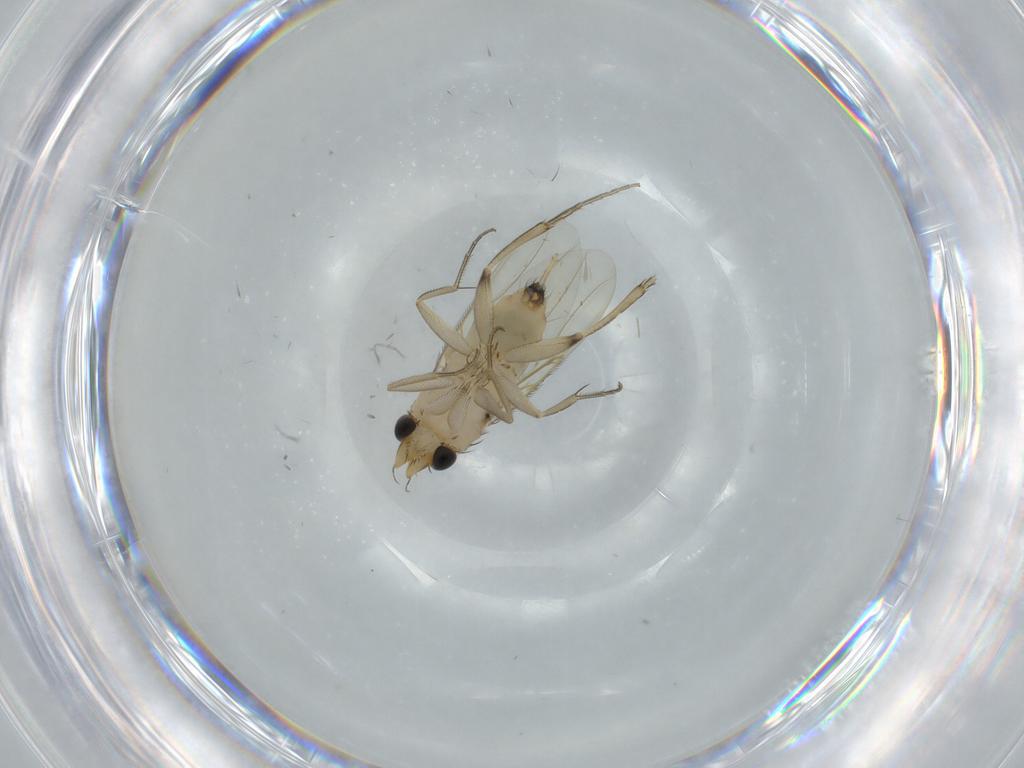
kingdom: Animalia
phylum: Arthropoda
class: Insecta
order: Diptera
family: Phoridae
